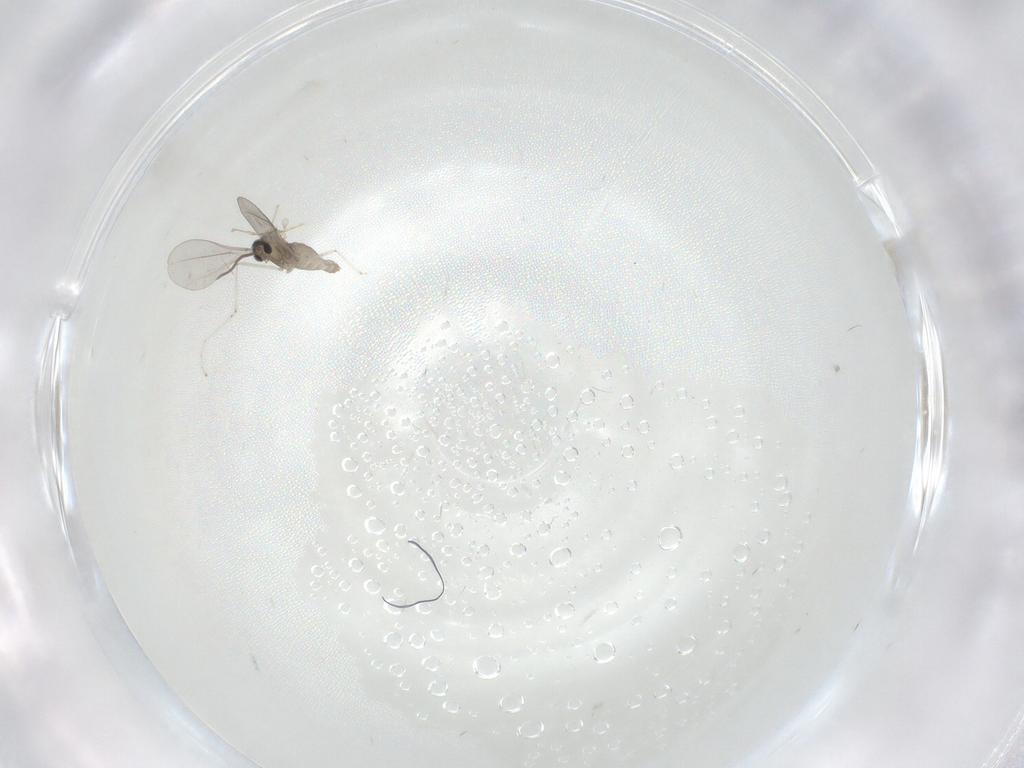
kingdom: Animalia
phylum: Arthropoda
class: Insecta
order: Diptera
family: Cecidomyiidae
